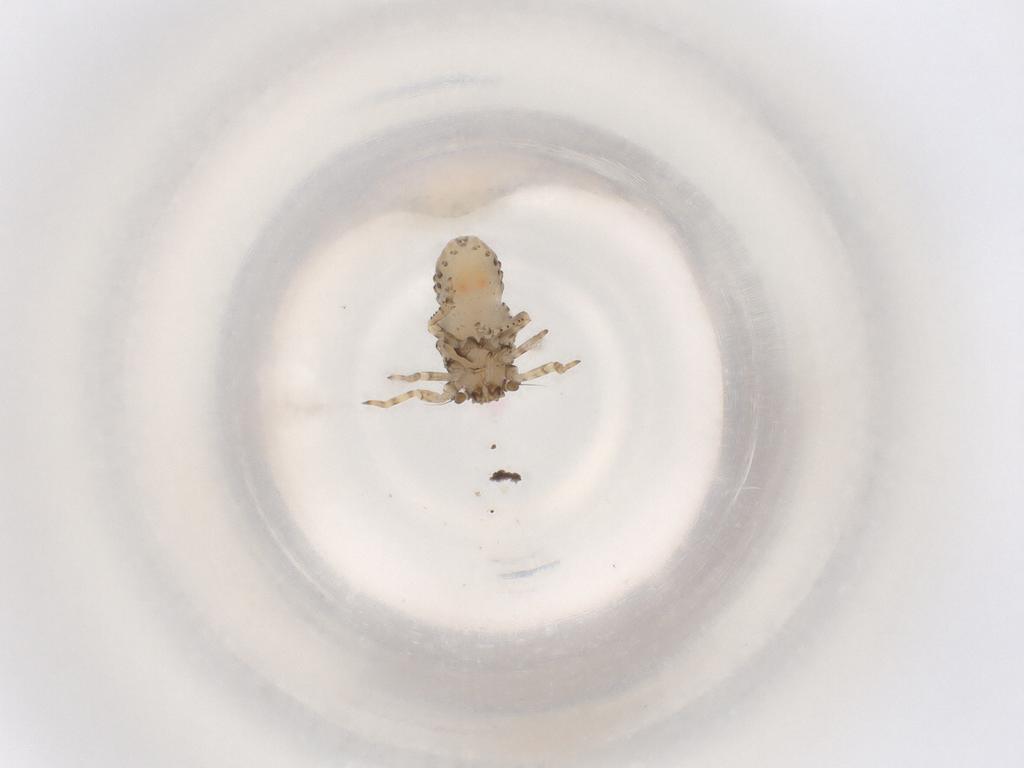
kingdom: Animalia
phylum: Arthropoda
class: Insecta
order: Hemiptera
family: Dictyopharidae
